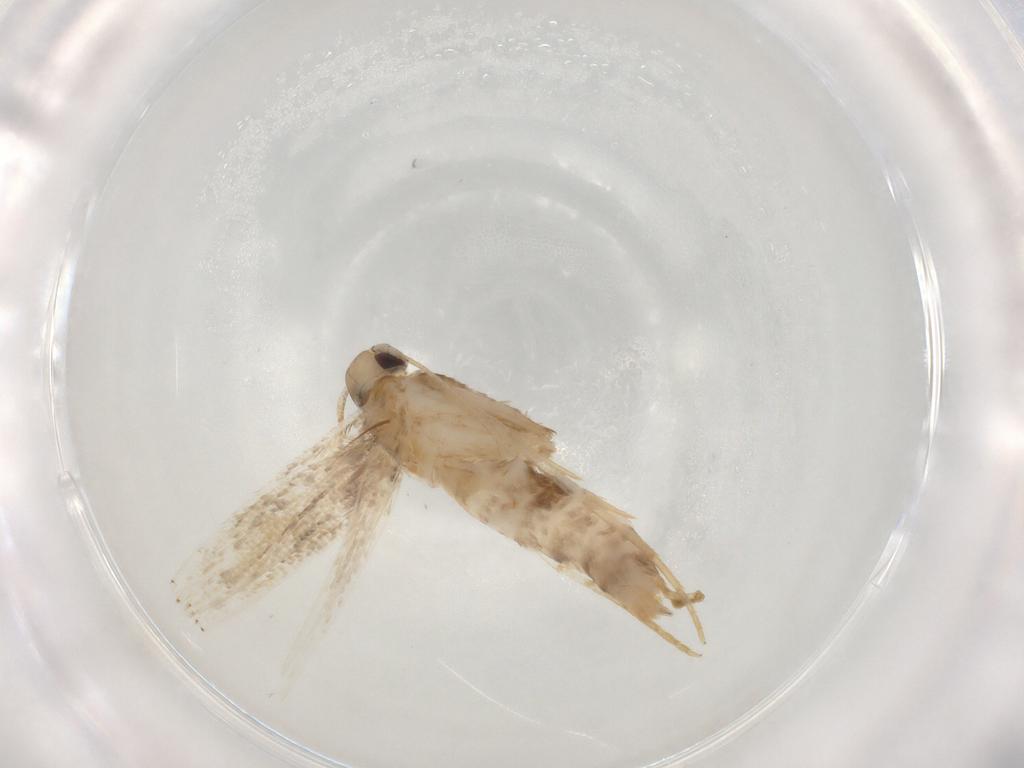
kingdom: Animalia
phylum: Arthropoda
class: Insecta
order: Lepidoptera
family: Coleophoridae
